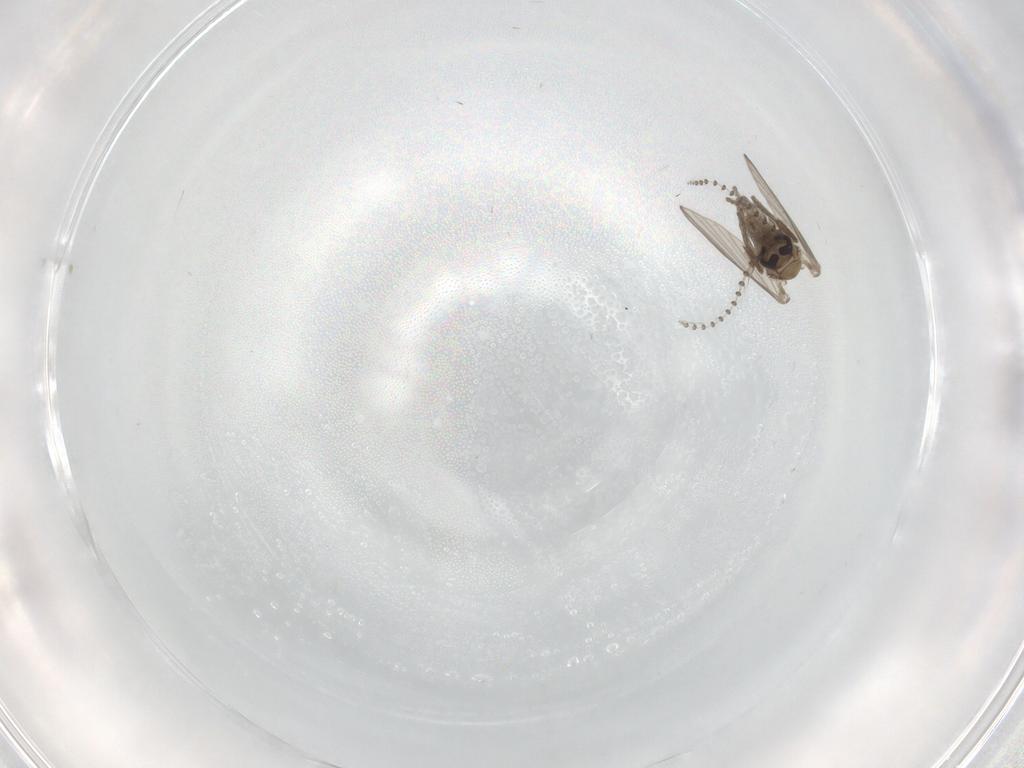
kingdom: Animalia
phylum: Arthropoda
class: Insecta
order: Diptera
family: Psychodidae
